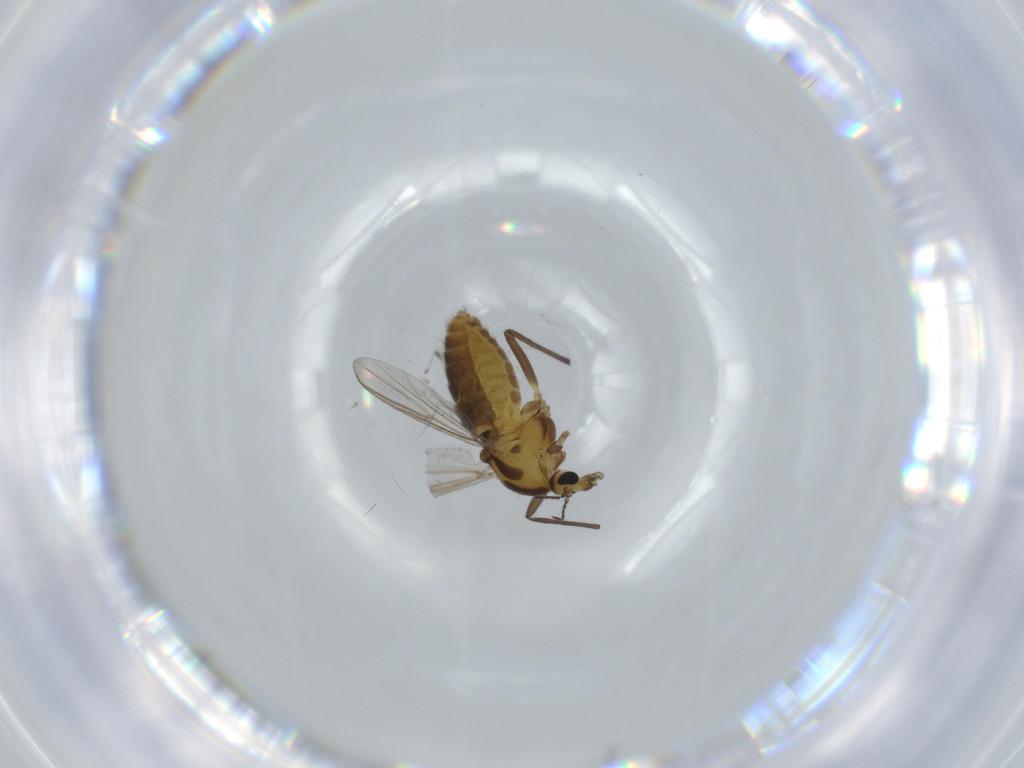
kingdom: Animalia
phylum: Arthropoda
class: Insecta
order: Diptera
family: Chironomidae
